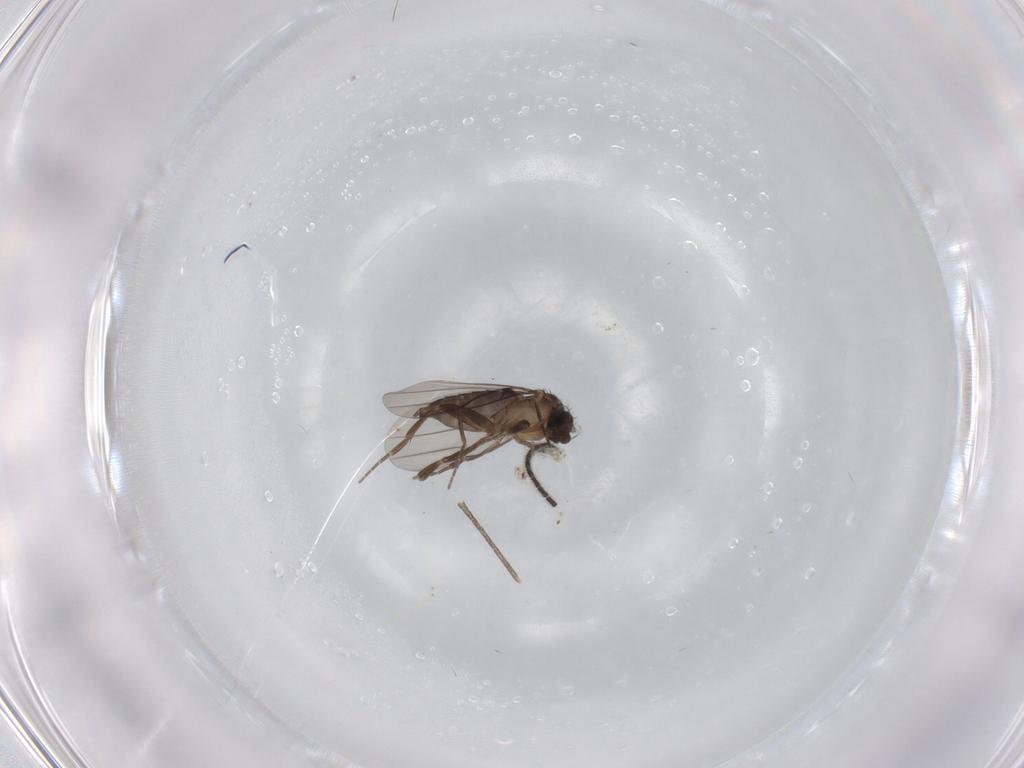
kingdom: Animalia
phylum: Arthropoda
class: Insecta
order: Diptera
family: Sciaridae
